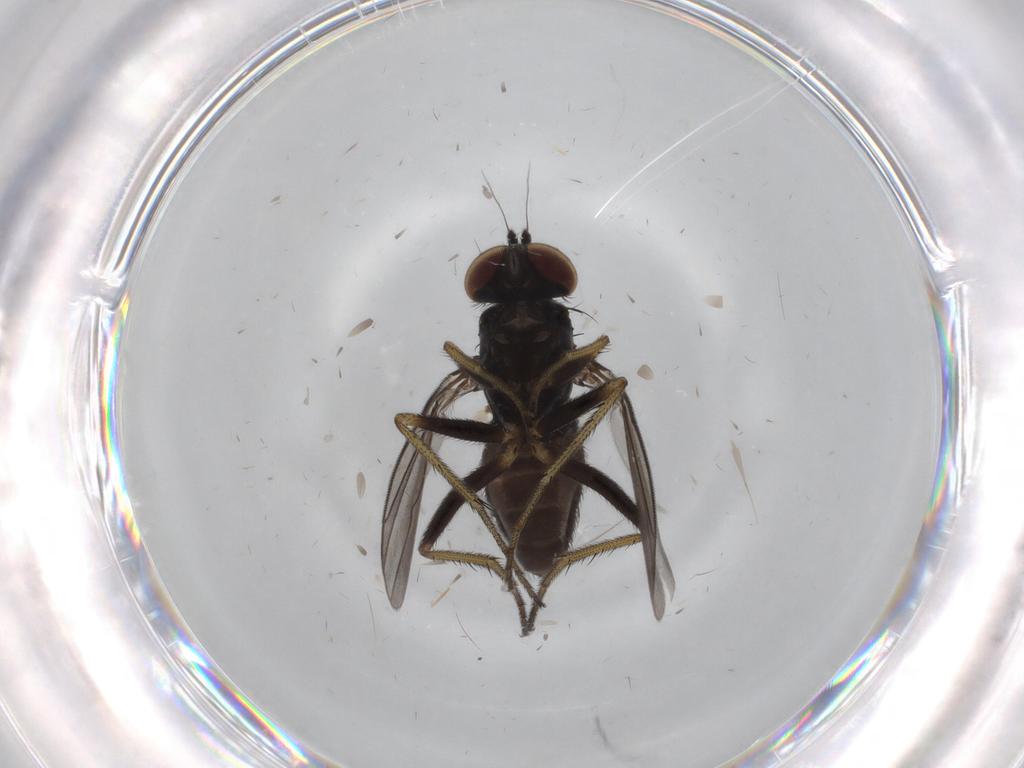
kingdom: Animalia
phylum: Arthropoda
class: Insecta
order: Diptera
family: Dolichopodidae
